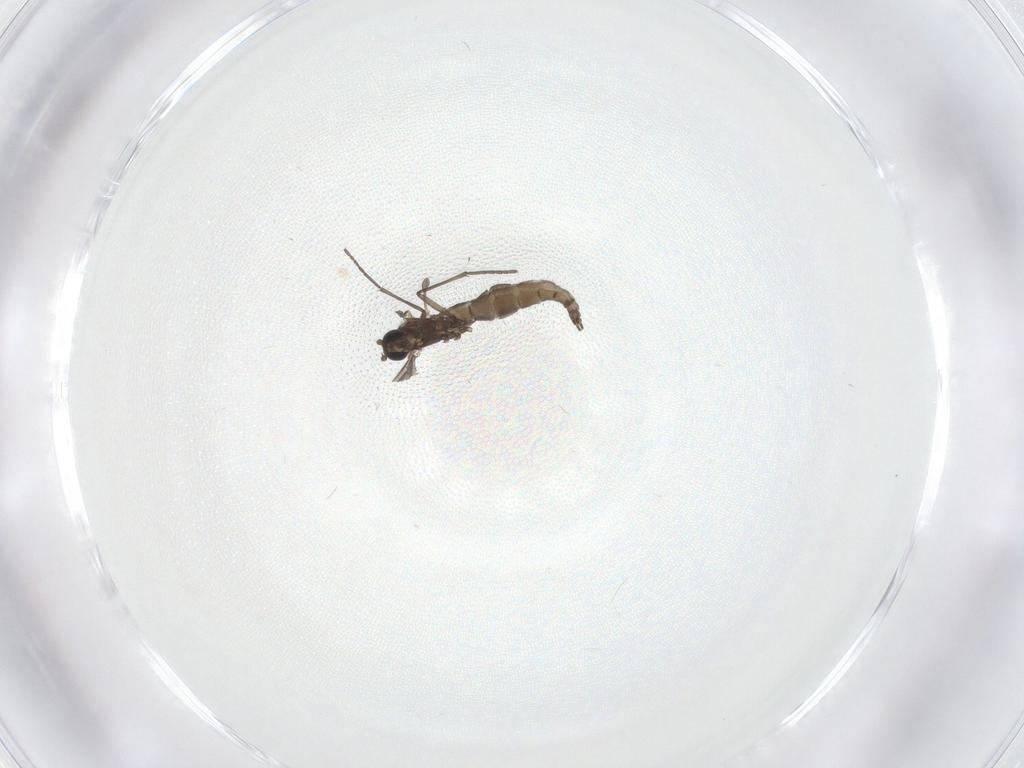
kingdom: Animalia
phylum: Arthropoda
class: Insecta
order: Diptera
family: Sciaridae
